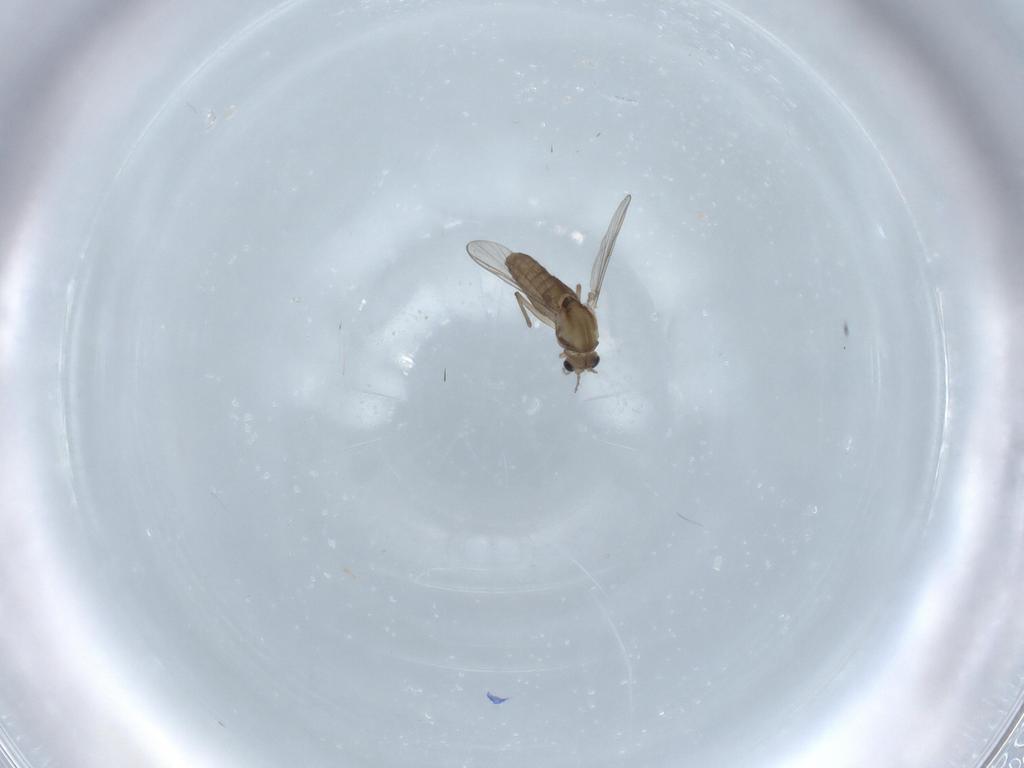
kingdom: Animalia
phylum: Arthropoda
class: Insecta
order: Diptera
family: Chironomidae
